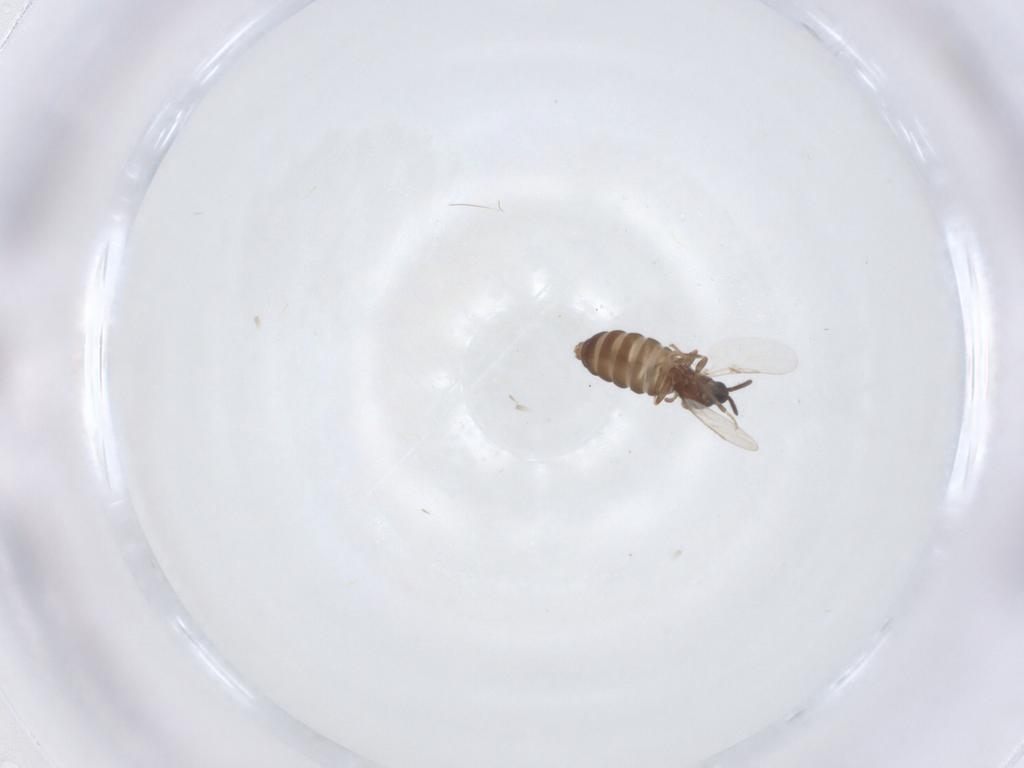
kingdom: Animalia
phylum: Arthropoda
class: Insecta
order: Diptera
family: Scatopsidae
